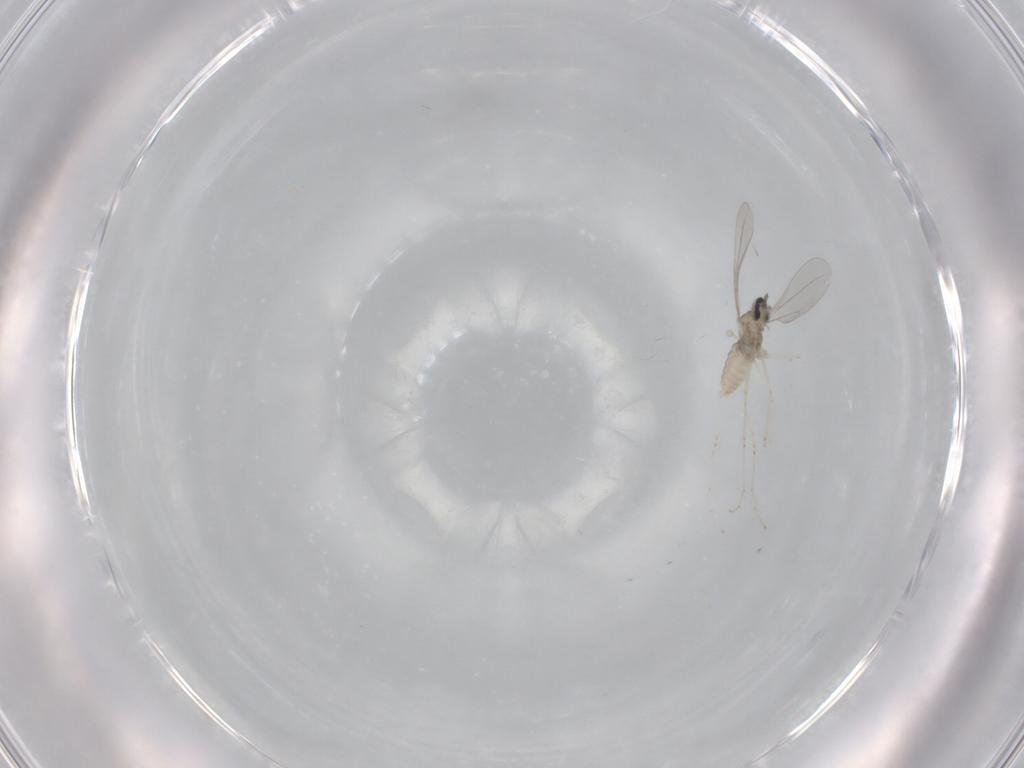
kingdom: Animalia
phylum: Arthropoda
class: Insecta
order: Diptera
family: Cecidomyiidae
